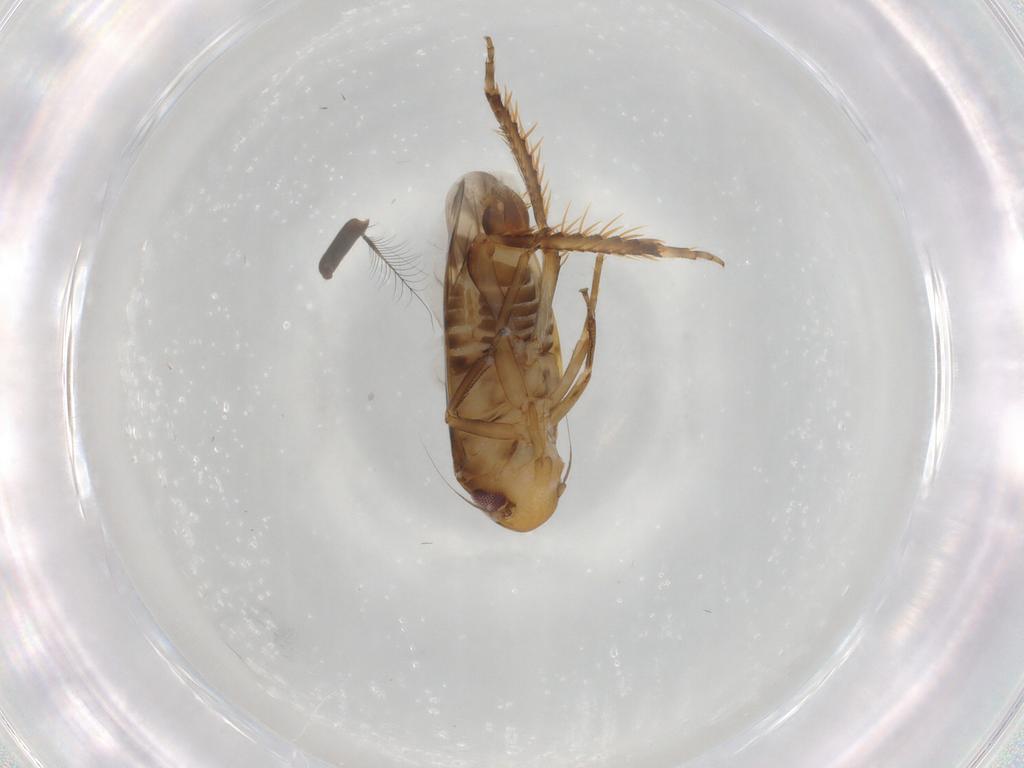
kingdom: Animalia
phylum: Arthropoda
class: Insecta
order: Hemiptera
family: Cicadellidae
